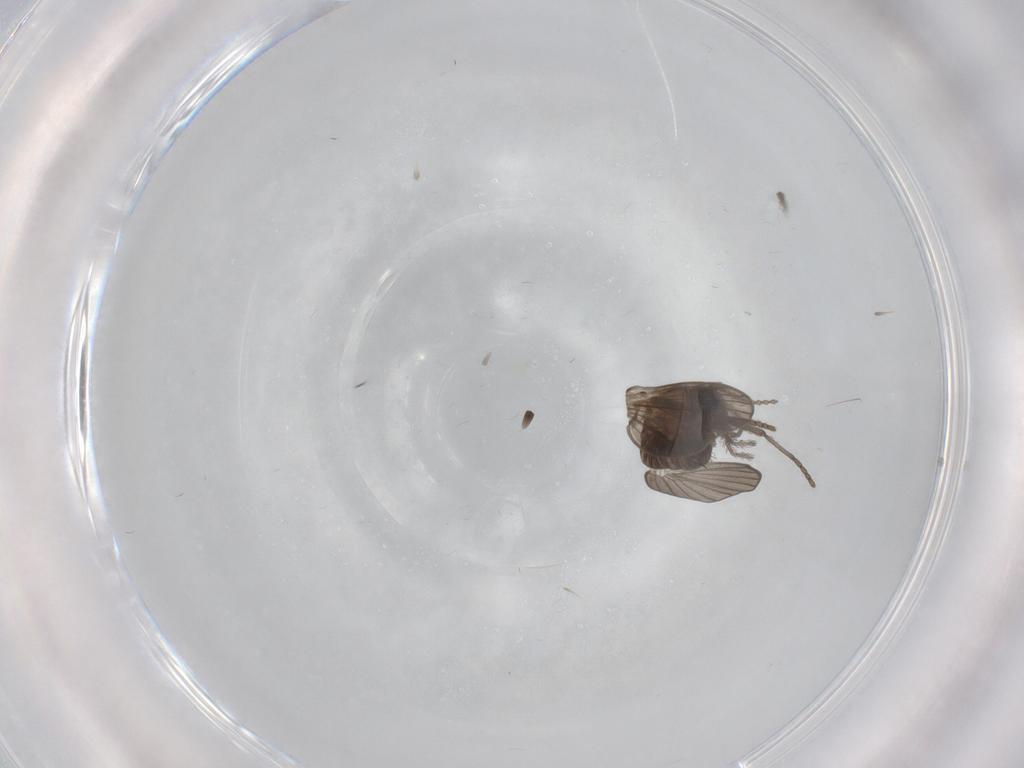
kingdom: Animalia
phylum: Arthropoda
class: Insecta
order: Diptera
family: Psychodidae
